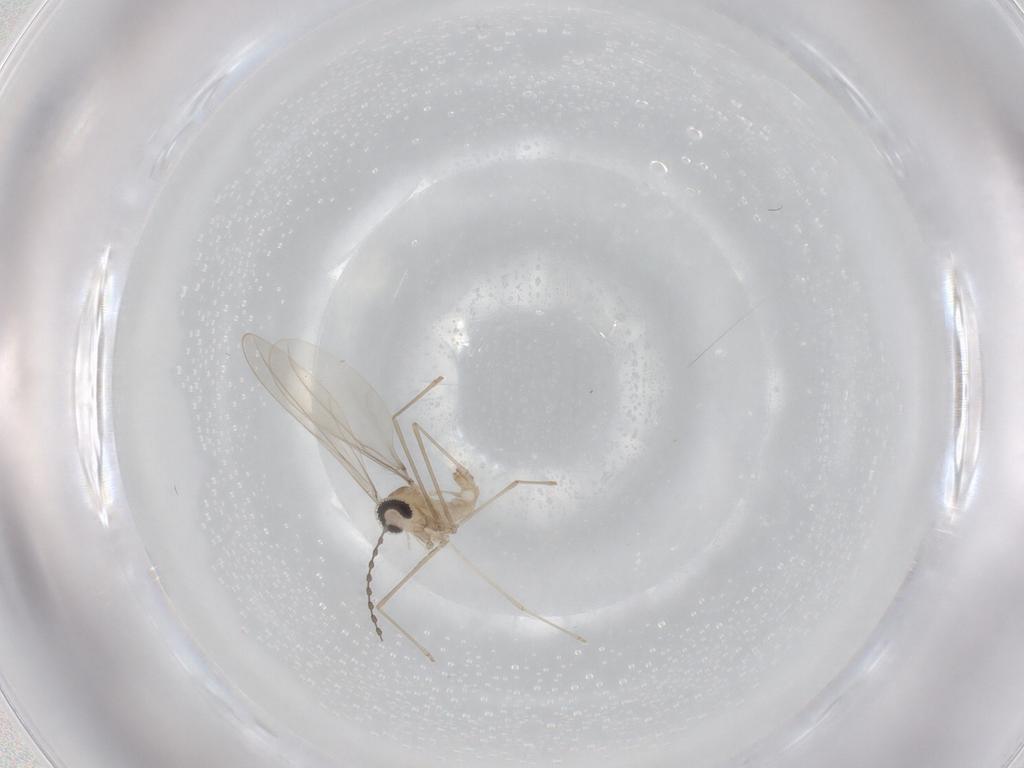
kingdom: Animalia
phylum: Arthropoda
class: Insecta
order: Diptera
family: Cecidomyiidae
